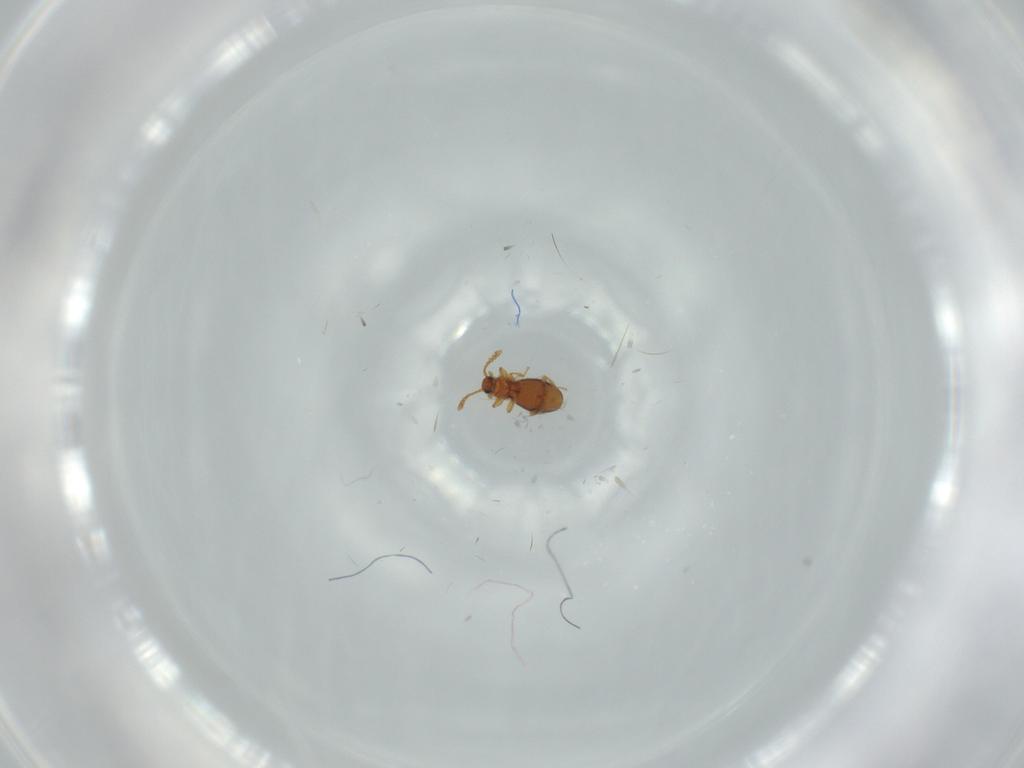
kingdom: Animalia
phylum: Arthropoda
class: Insecta
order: Coleoptera
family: Staphylinidae
